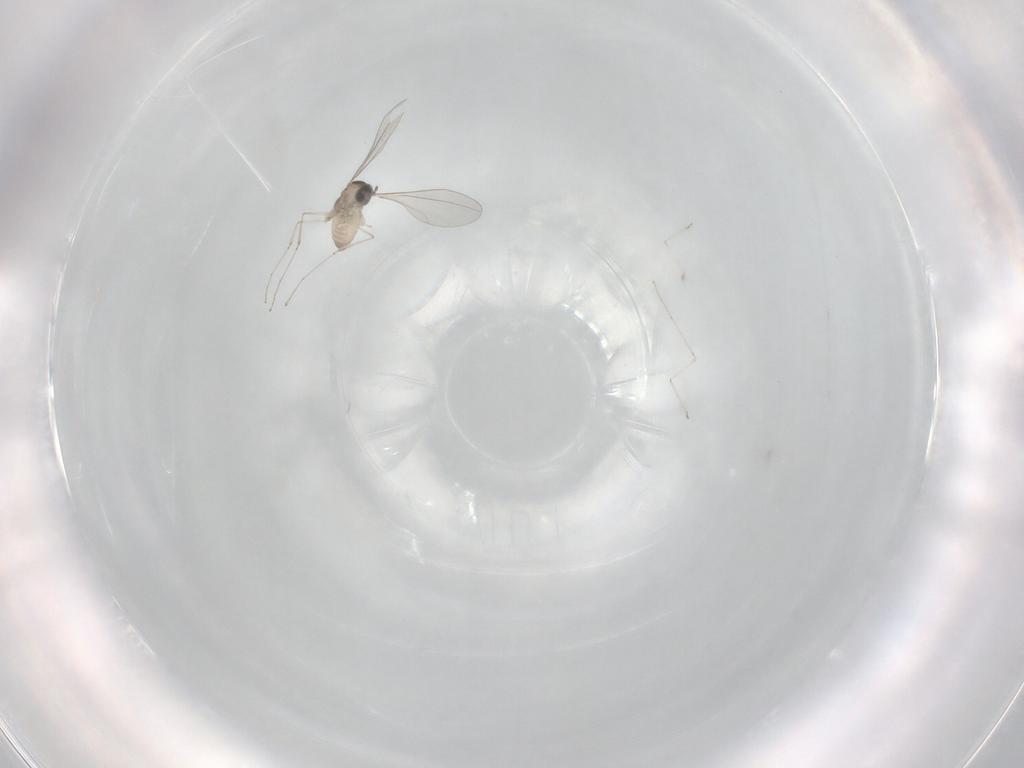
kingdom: Animalia
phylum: Arthropoda
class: Insecta
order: Diptera
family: Cecidomyiidae
